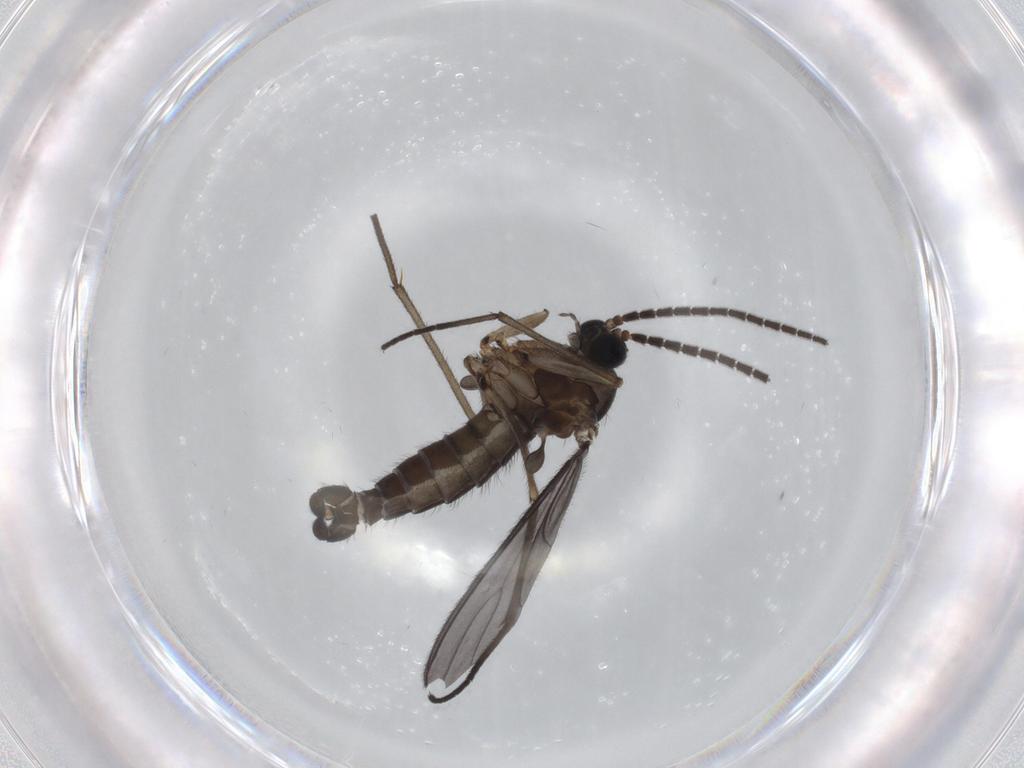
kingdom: Animalia
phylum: Arthropoda
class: Insecta
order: Diptera
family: Sciaridae
